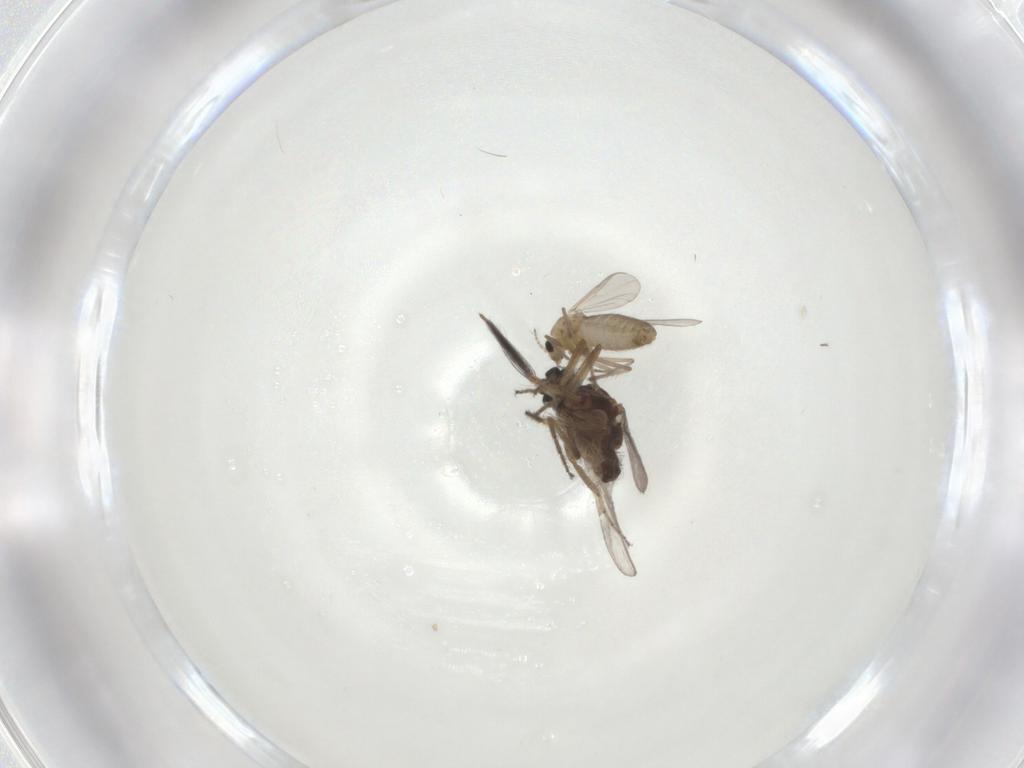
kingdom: Animalia
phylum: Arthropoda
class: Insecta
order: Diptera
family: Ceratopogonidae
